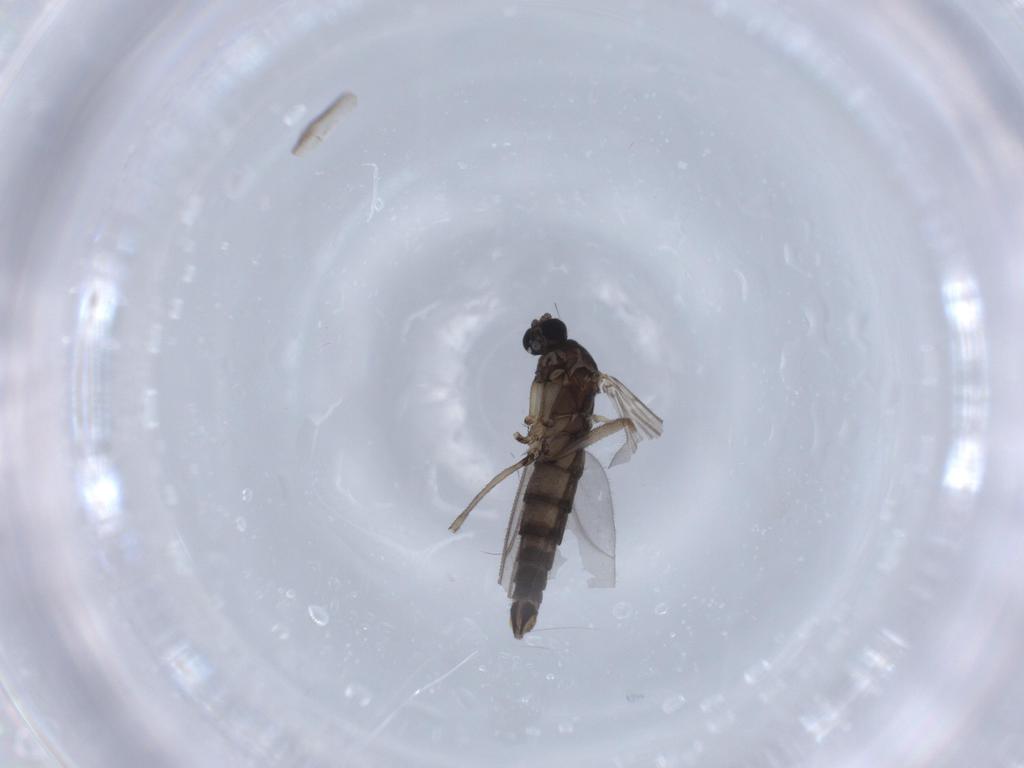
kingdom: Animalia
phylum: Arthropoda
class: Insecta
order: Diptera
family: Sciaridae
